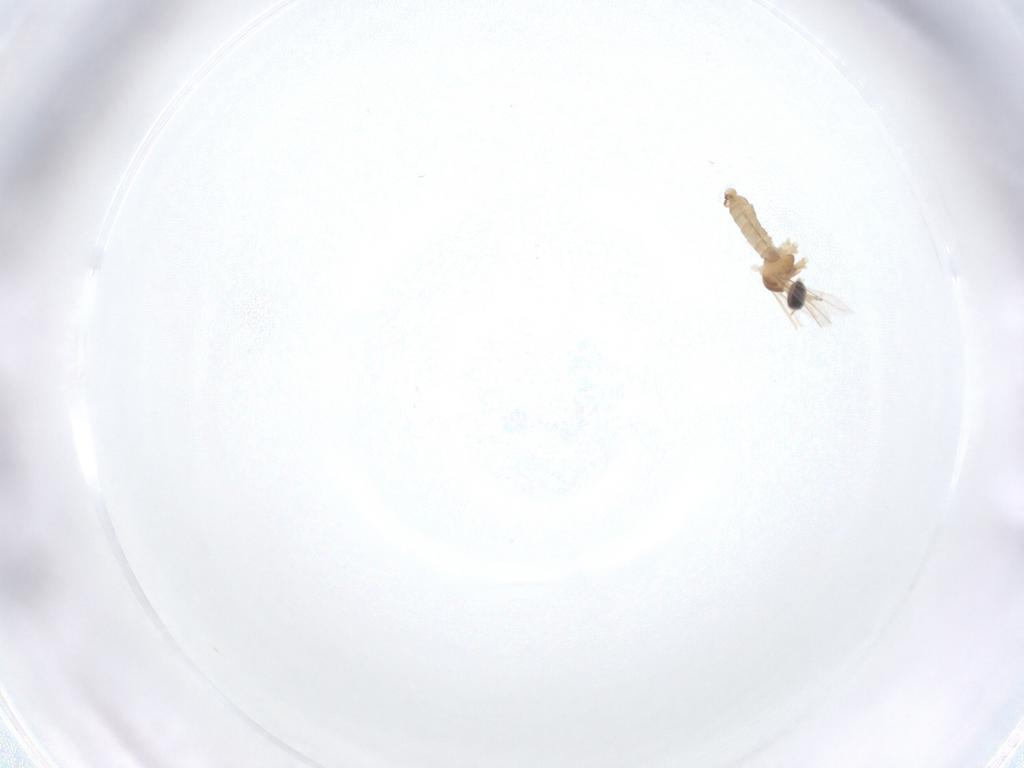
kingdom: Animalia
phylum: Arthropoda
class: Insecta
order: Diptera
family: Cecidomyiidae
